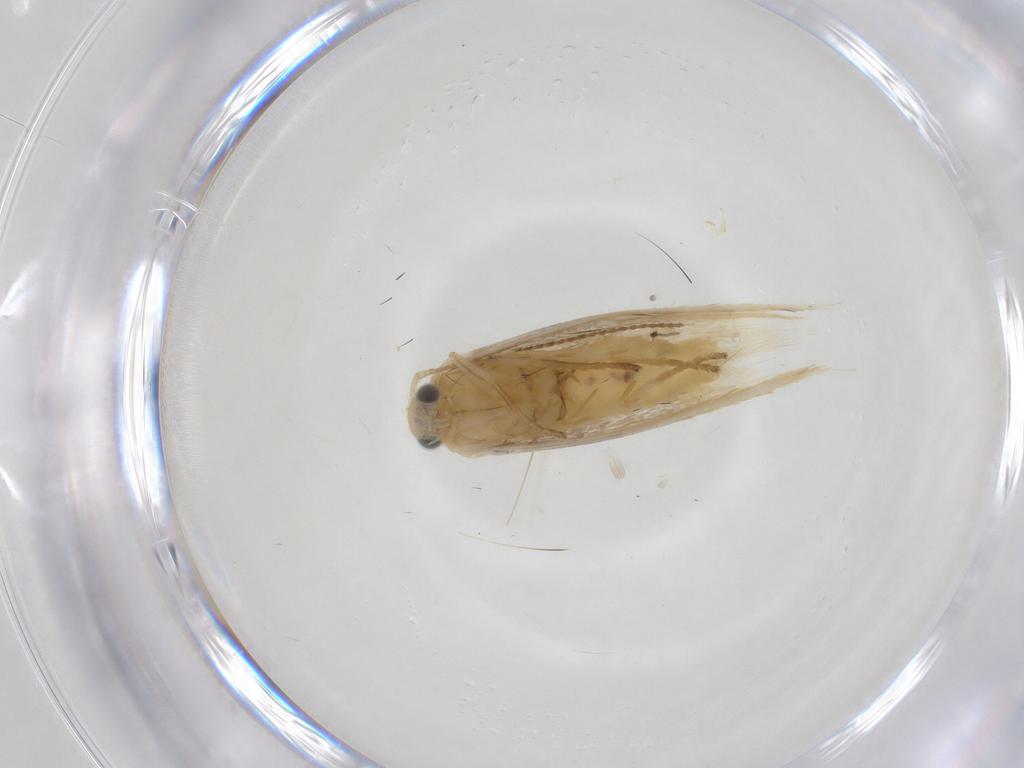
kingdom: Animalia
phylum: Arthropoda
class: Insecta
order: Lepidoptera
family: Argyresthiidae
